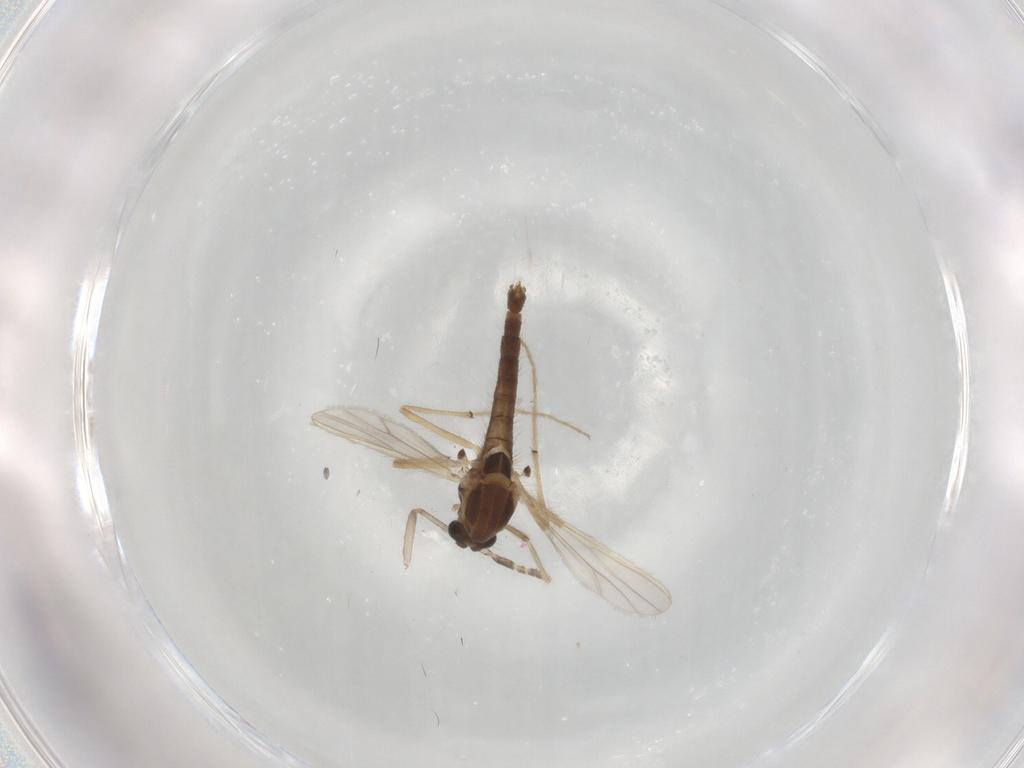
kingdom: Animalia
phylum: Arthropoda
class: Insecta
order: Diptera
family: Chironomidae
